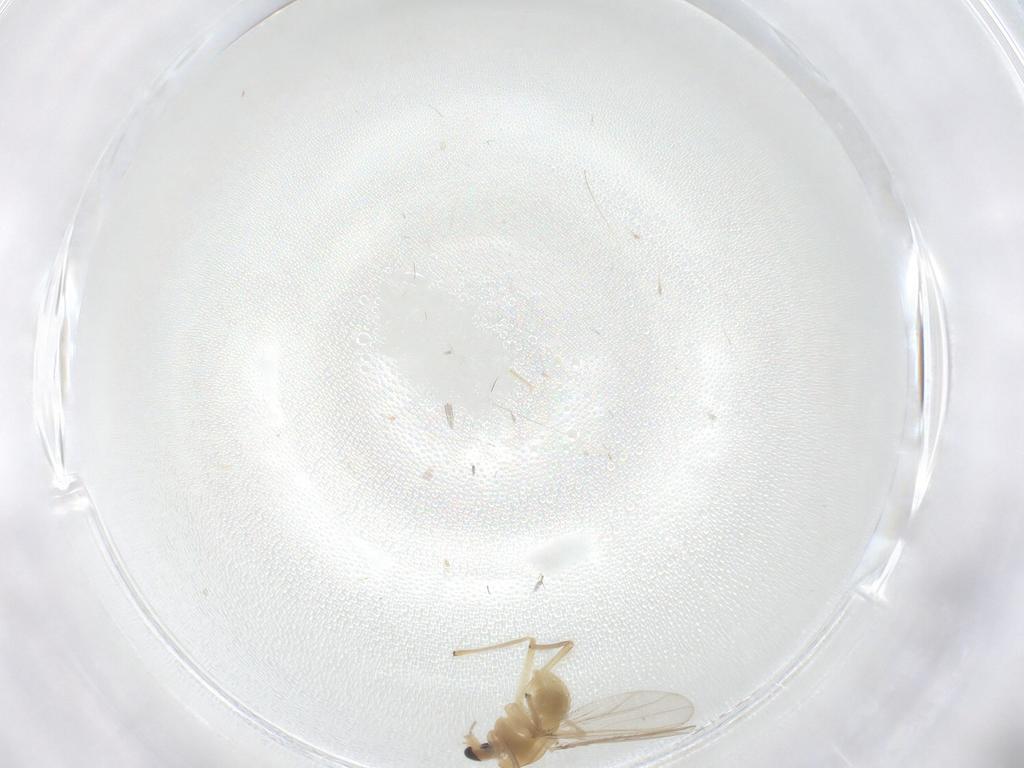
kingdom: Animalia
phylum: Arthropoda
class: Insecta
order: Diptera
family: Chironomidae
